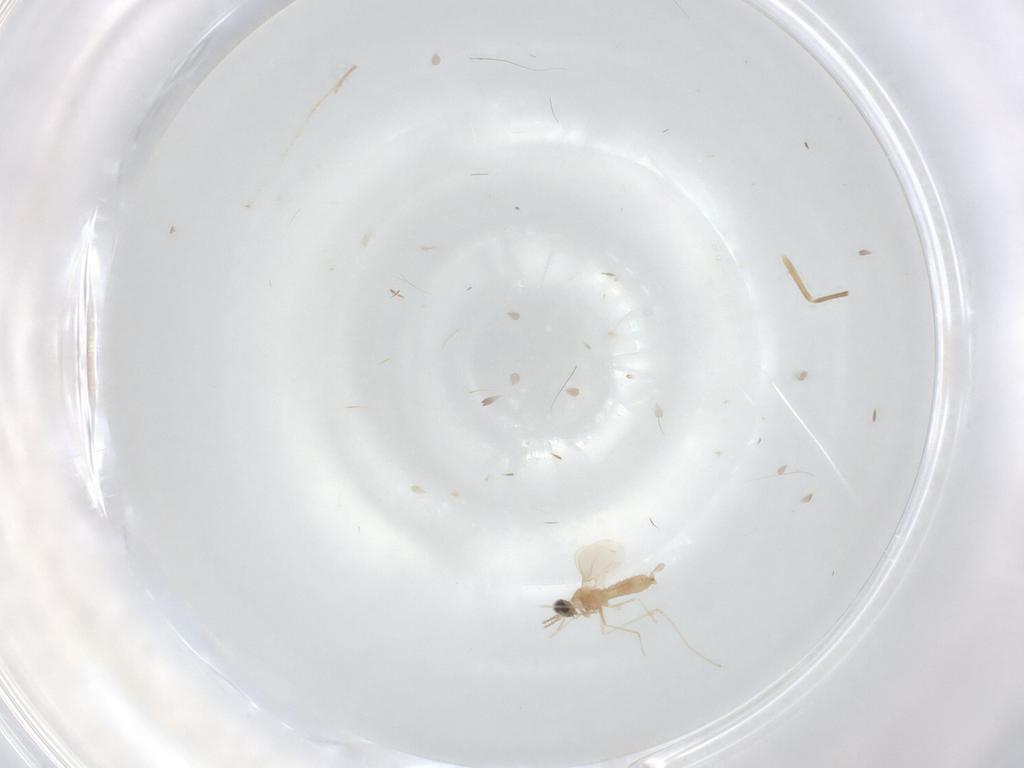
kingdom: Animalia
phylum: Arthropoda
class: Insecta
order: Diptera
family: Cecidomyiidae
